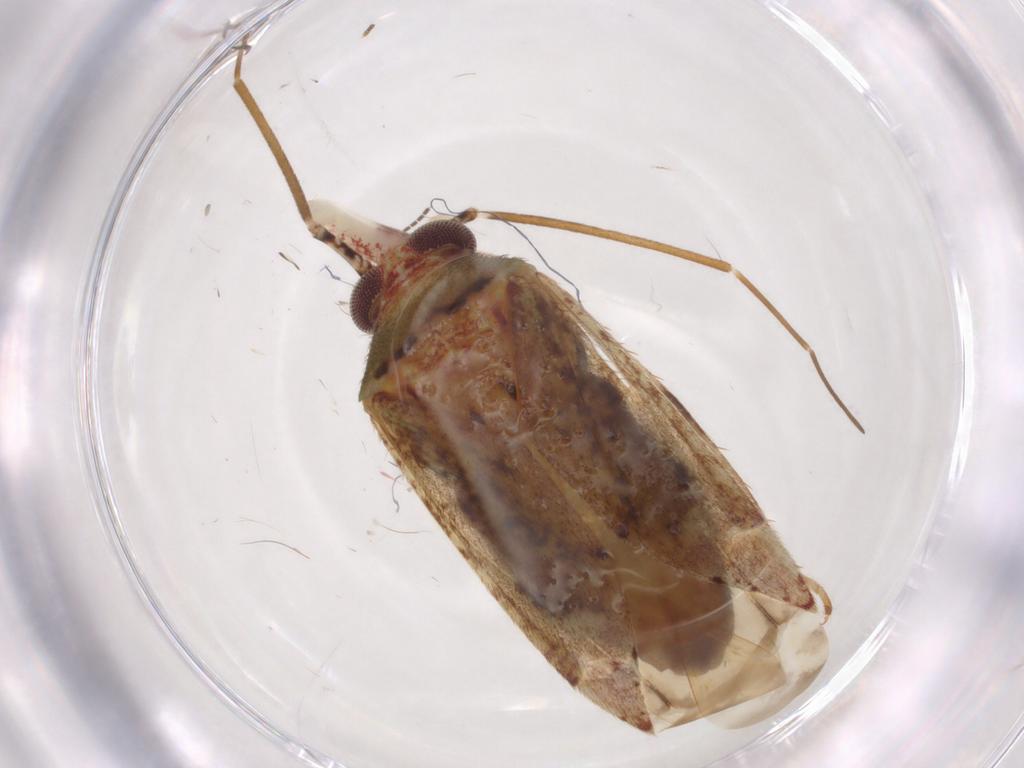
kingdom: Animalia
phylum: Arthropoda
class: Insecta
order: Hemiptera
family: Miridae
